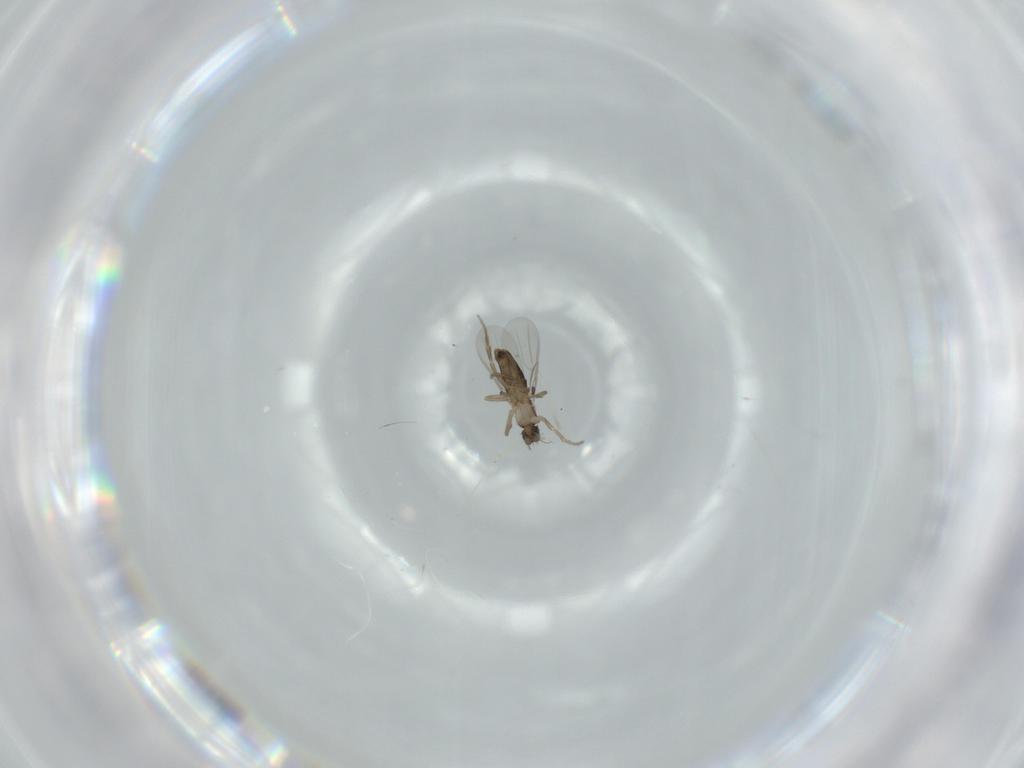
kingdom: Animalia
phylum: Arthropoda
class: Insecta
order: Diptera
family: Phoridae
